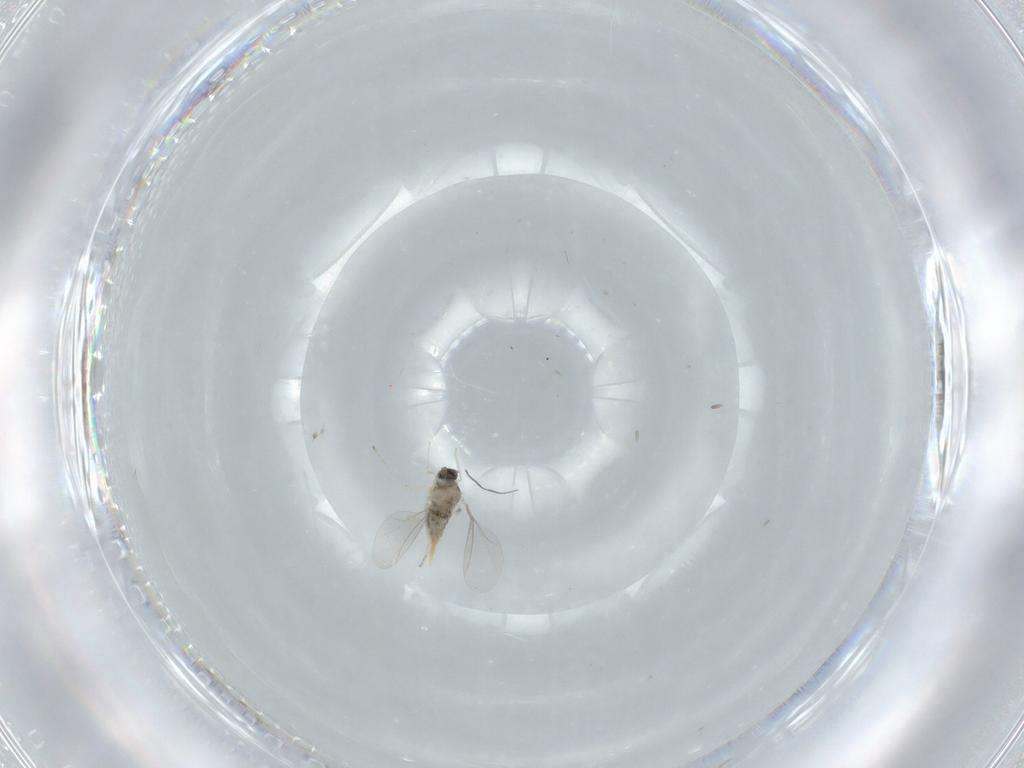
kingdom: Animalia
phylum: Arthropoda
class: Insecta
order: Diptera
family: Cecidomyiidae
